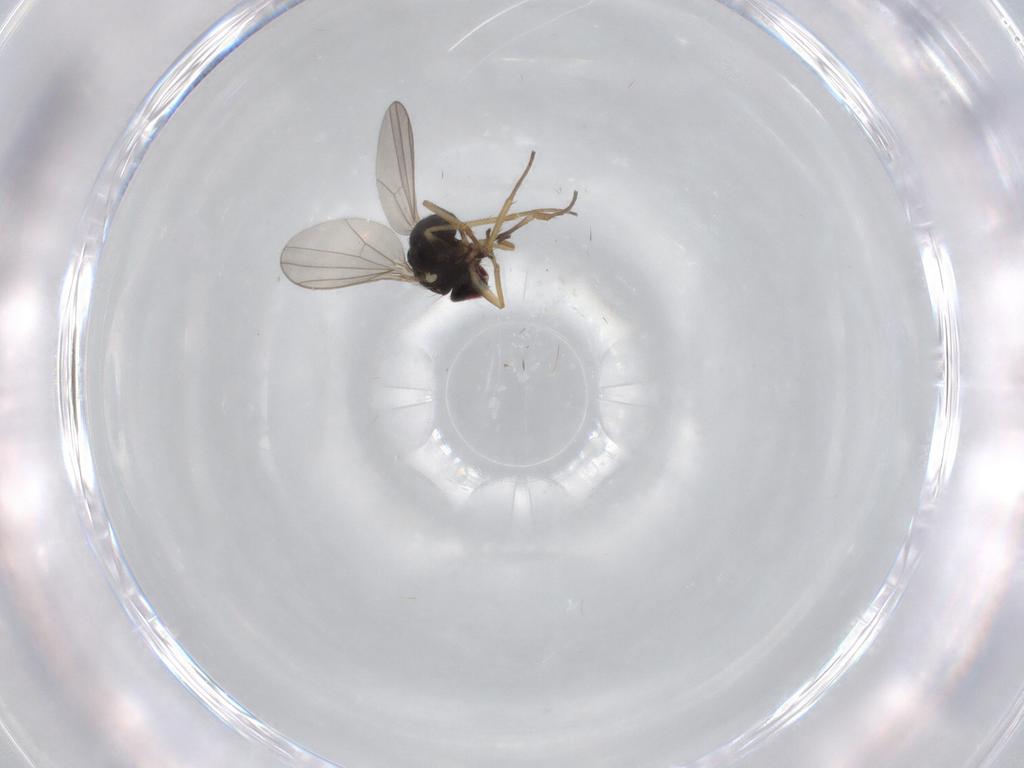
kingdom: Animalia
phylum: Arthropoda
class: Insecta
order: Diptera
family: Dolichopodidae
